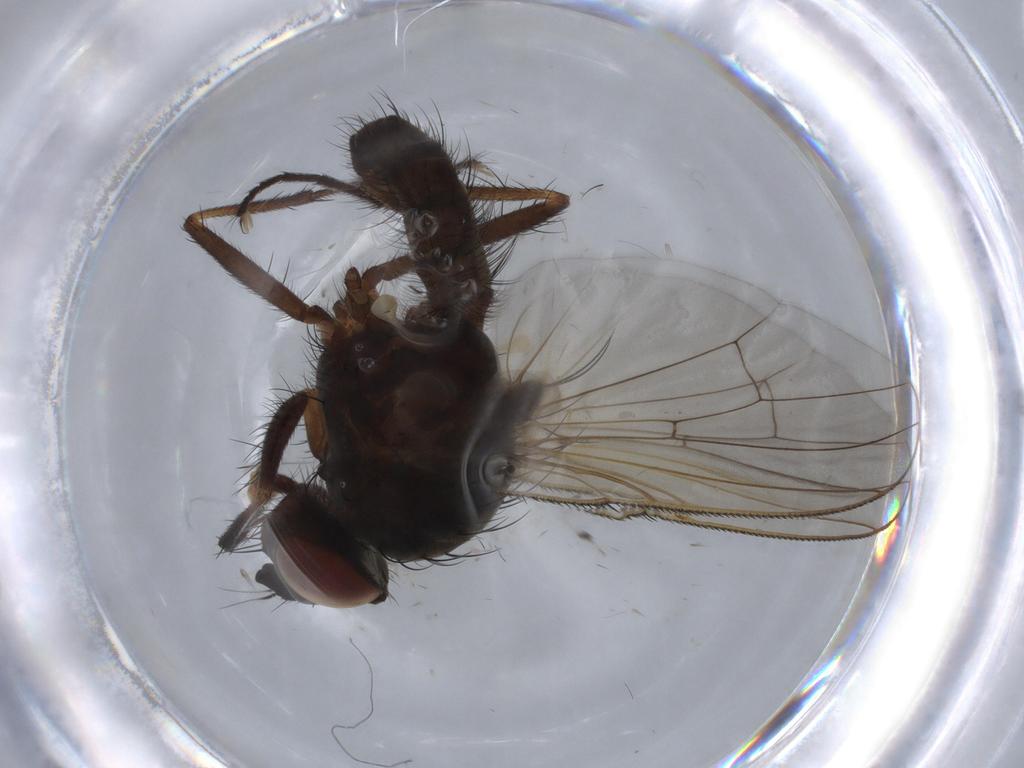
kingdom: Animalia
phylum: Arthropoda
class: Insecta
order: Diptera
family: Anthomyiidae
